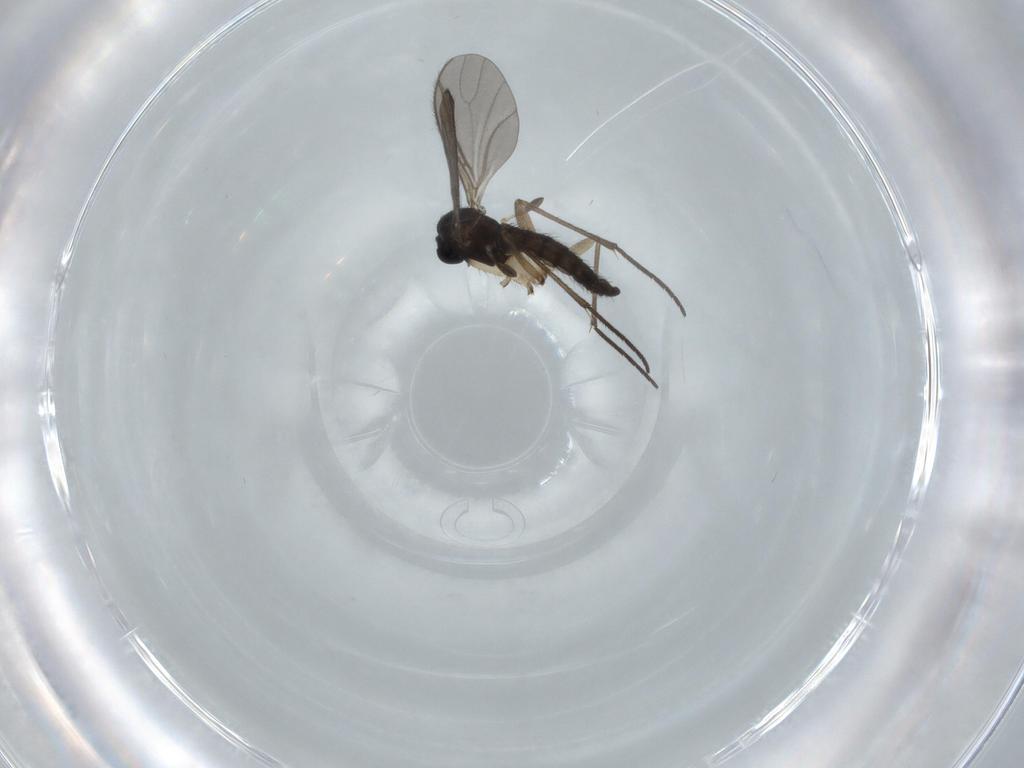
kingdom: Animalia
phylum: Arthropoda
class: Insecta
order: Diptera
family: Sciaridae
